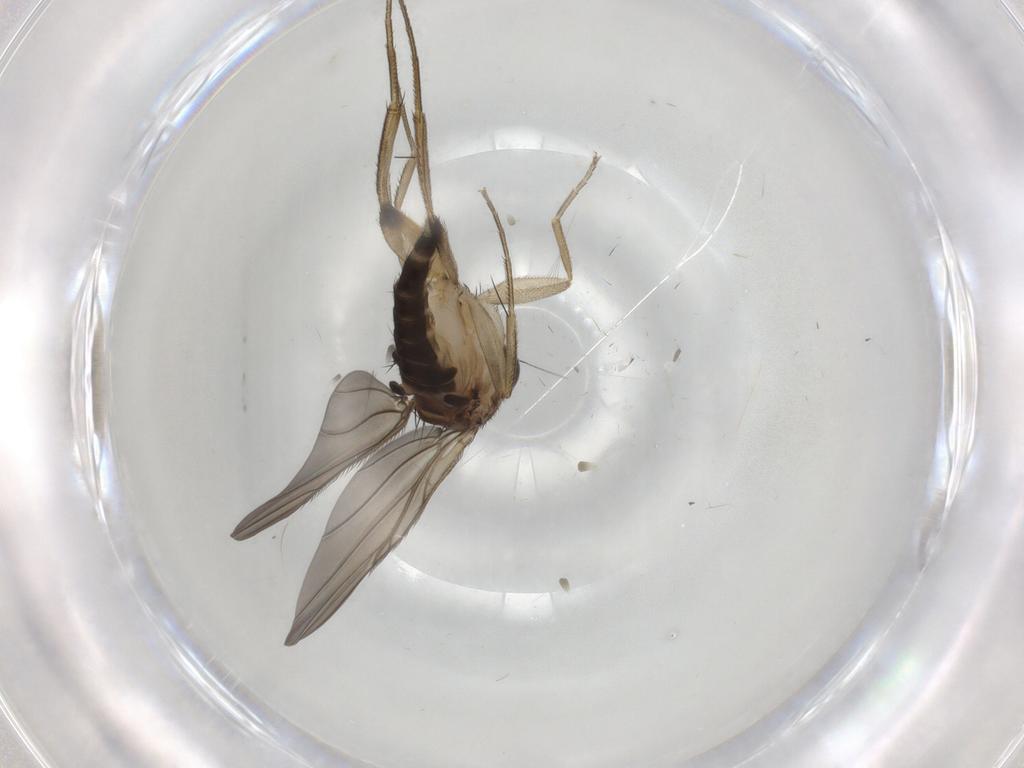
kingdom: Animalia
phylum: Arthropoda
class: Insecta
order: Diptera
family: Phoridae
